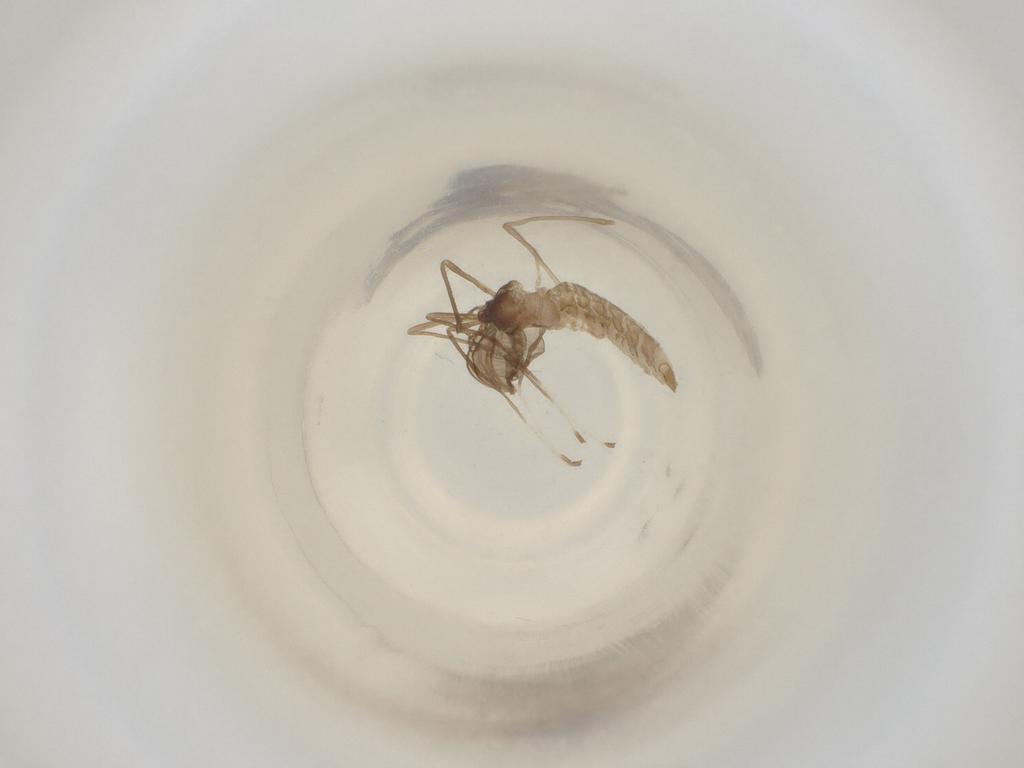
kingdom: Animalia
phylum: Arthropoda
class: Insecta
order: Diptera
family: Cecidomyiidae
